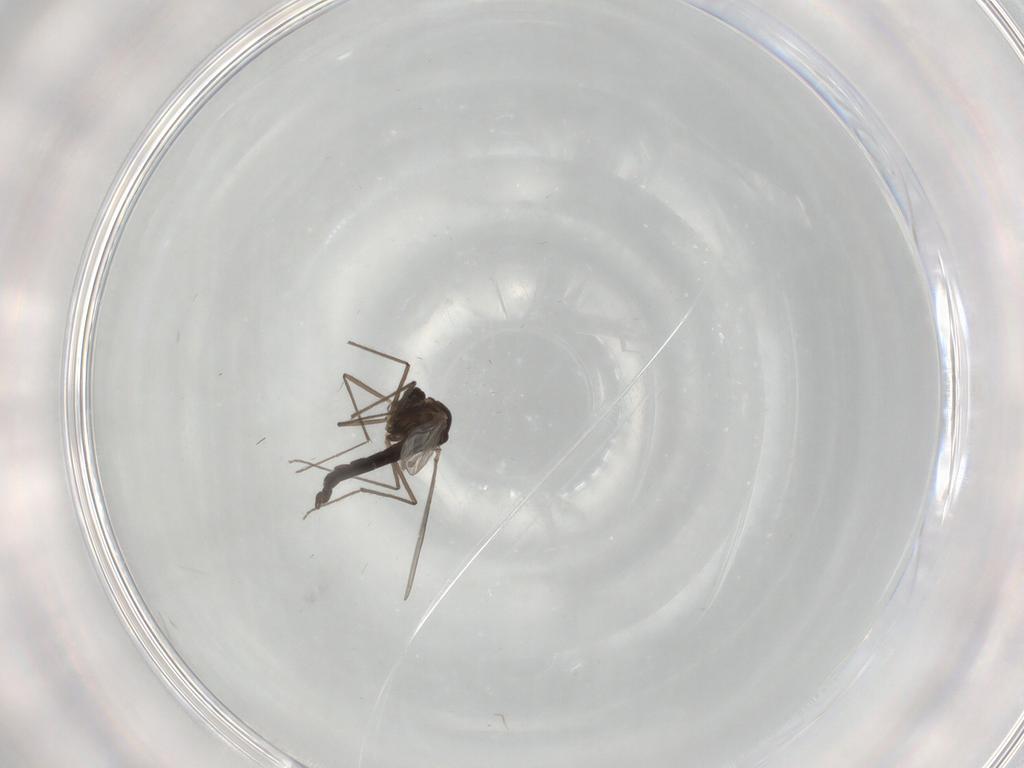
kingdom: Animalia
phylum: Arthropoda
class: Insecta
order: Diptera
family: Chironomidae
